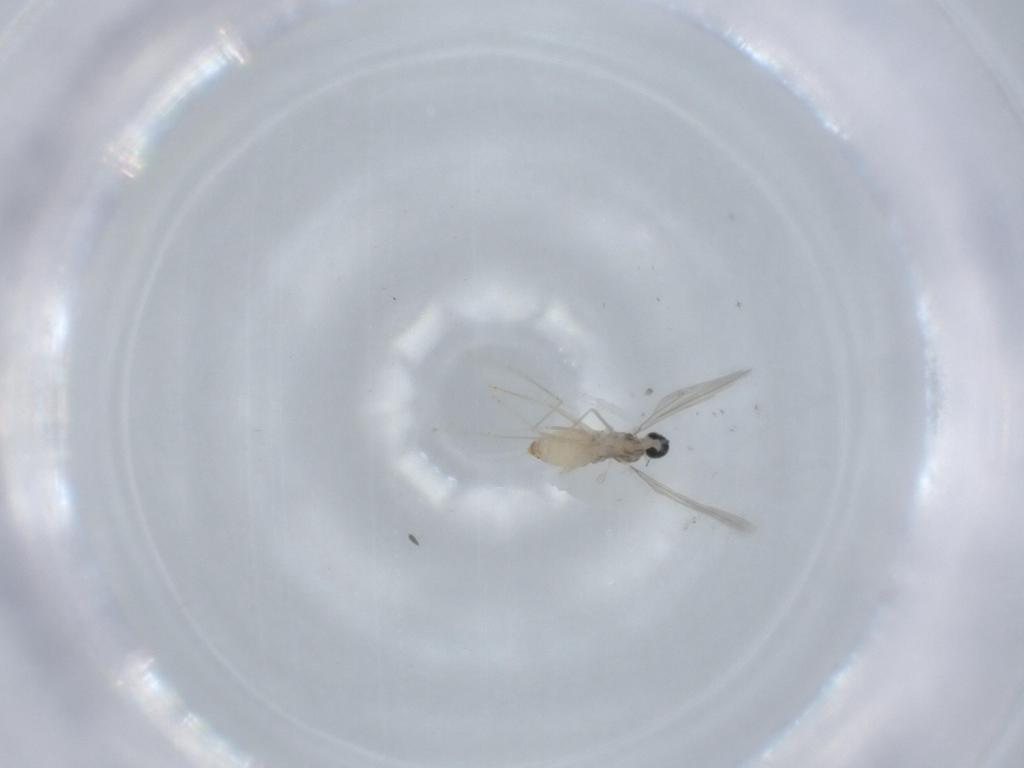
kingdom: Animalia
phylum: Arthropoda
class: Insecta
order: Diptera
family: Cecidomyiidae
